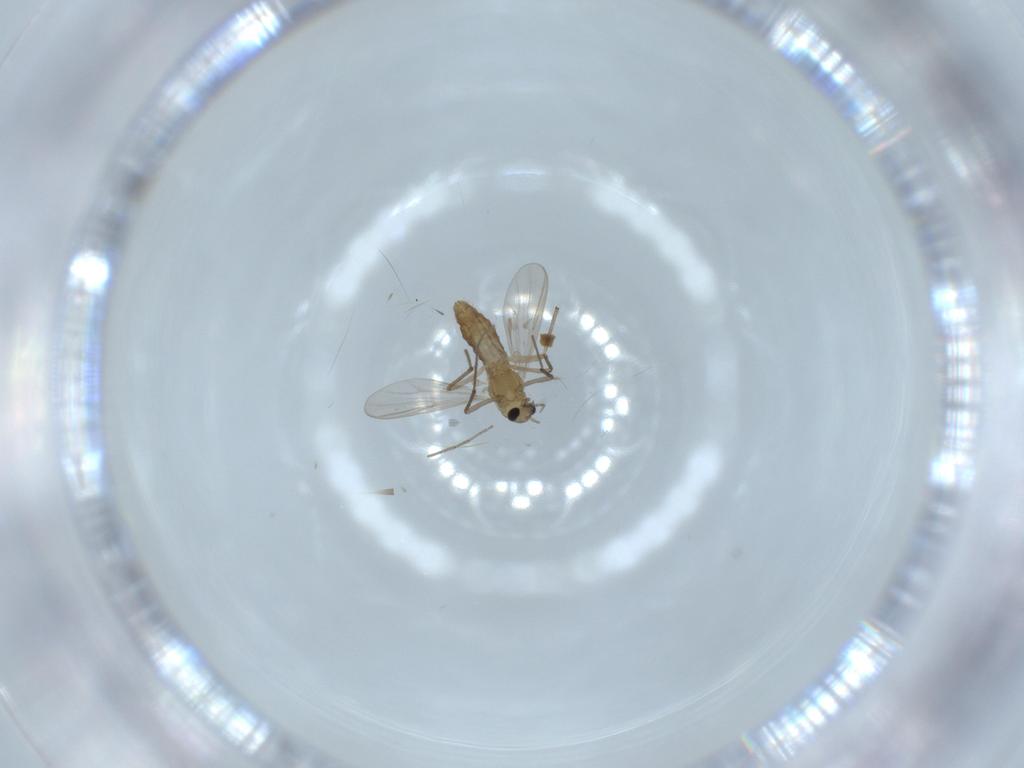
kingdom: Animalia
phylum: Arthropoda
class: Insecta
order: Diptera
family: Chironomidae
